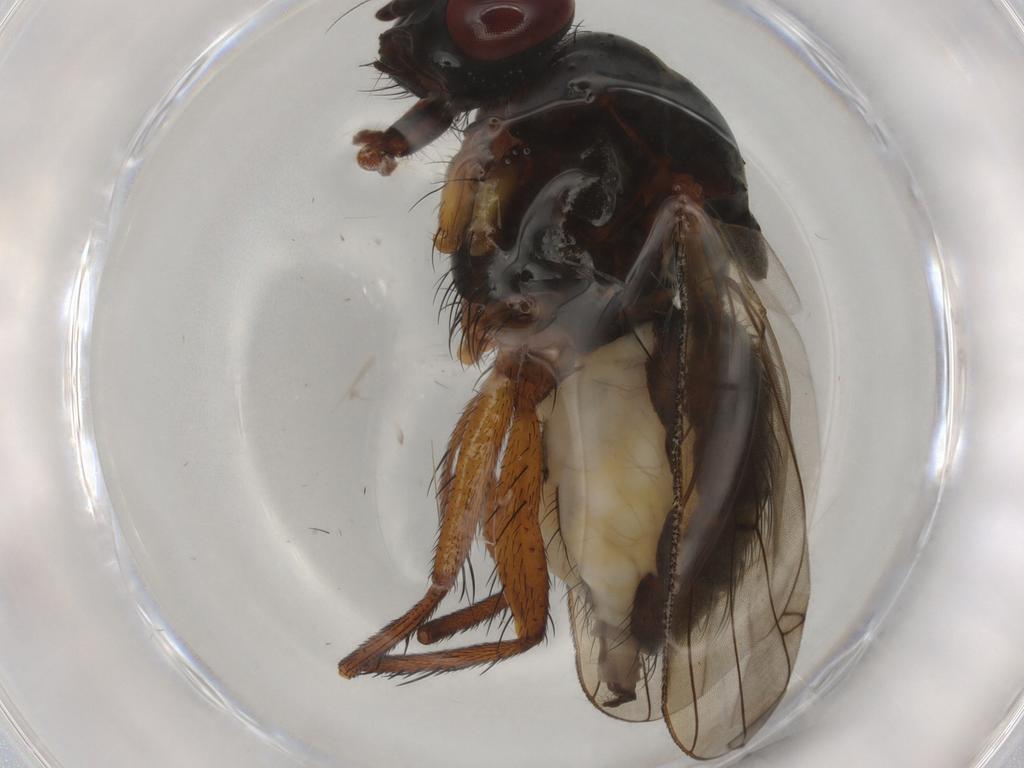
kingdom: Animalia
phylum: Arthropoda
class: Insecta
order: Diptera
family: Anthomyiidae
